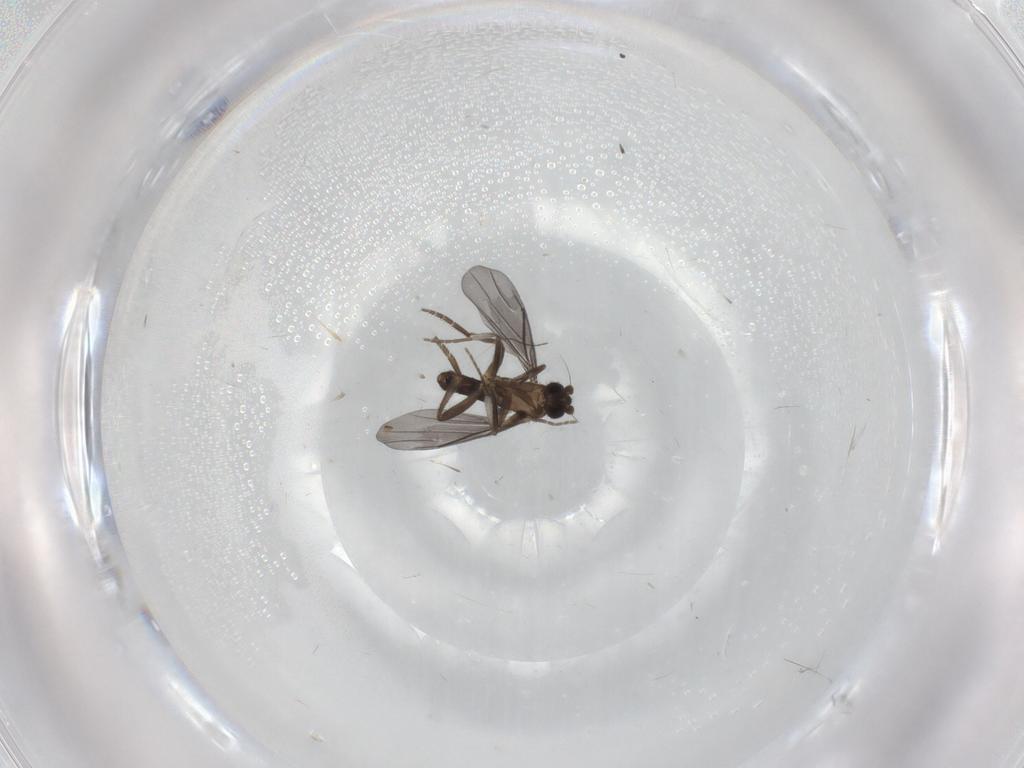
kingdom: Animalia
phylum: Arthropoda
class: Insecta
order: Diptera
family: Phoridae
